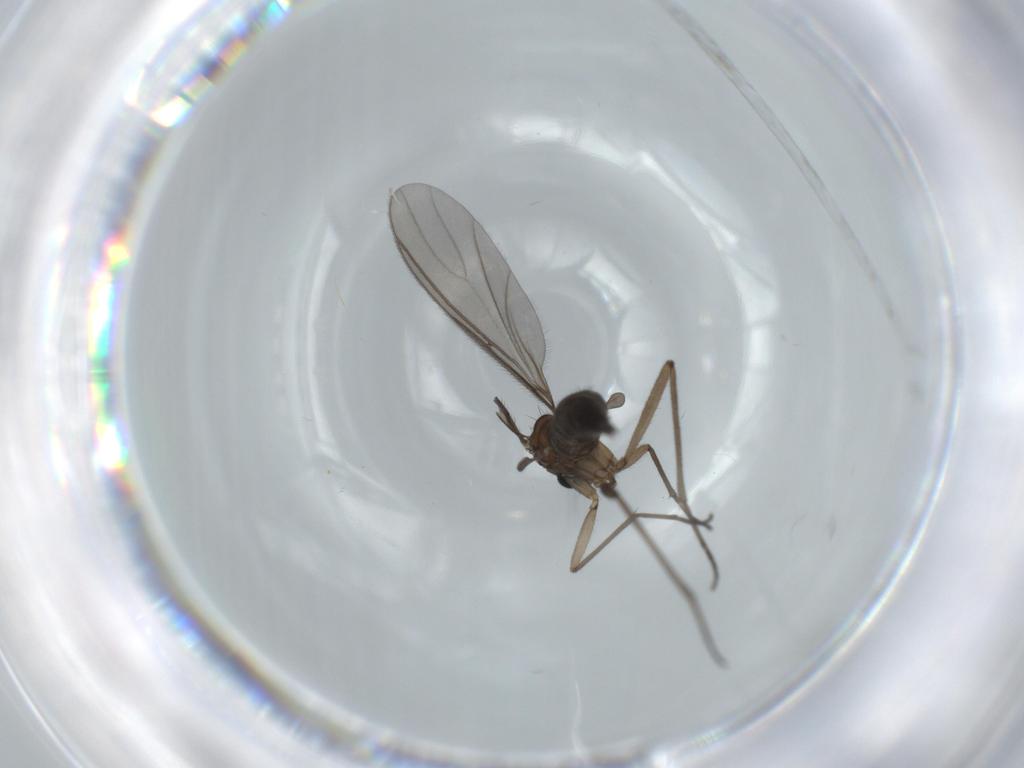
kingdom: Animalia
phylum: Arthropoda
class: Insecta
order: Diptera
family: Sciaridae
